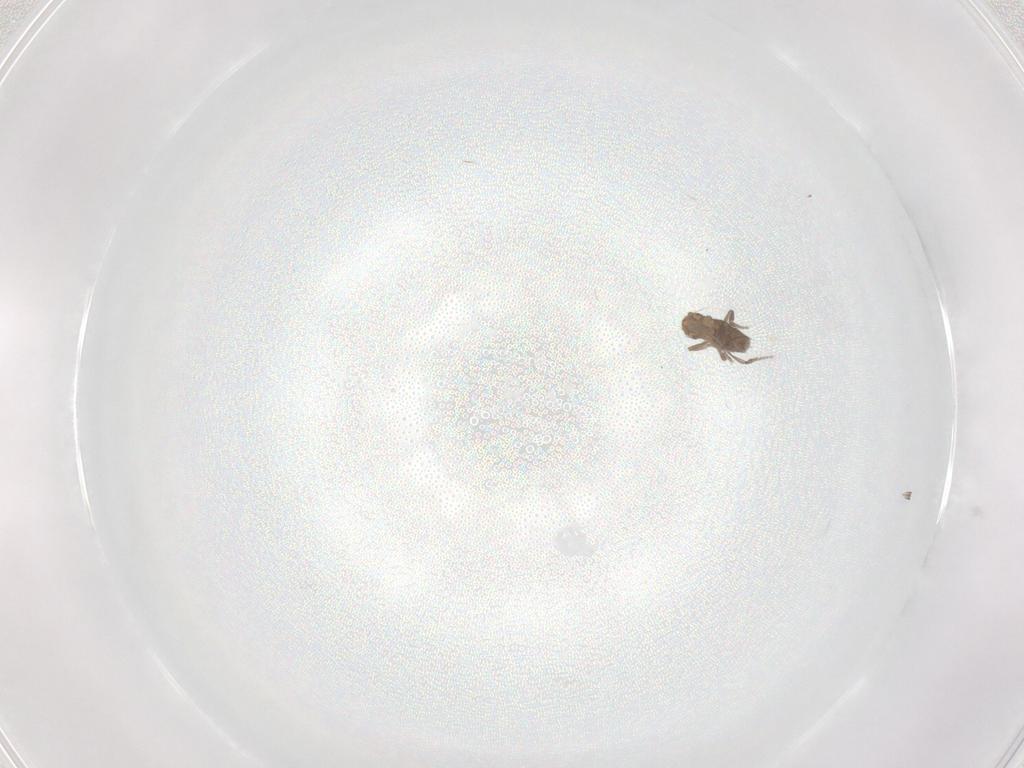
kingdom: Animalia
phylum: Arthropoda
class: Insecta
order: Diptera
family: Phoridae
